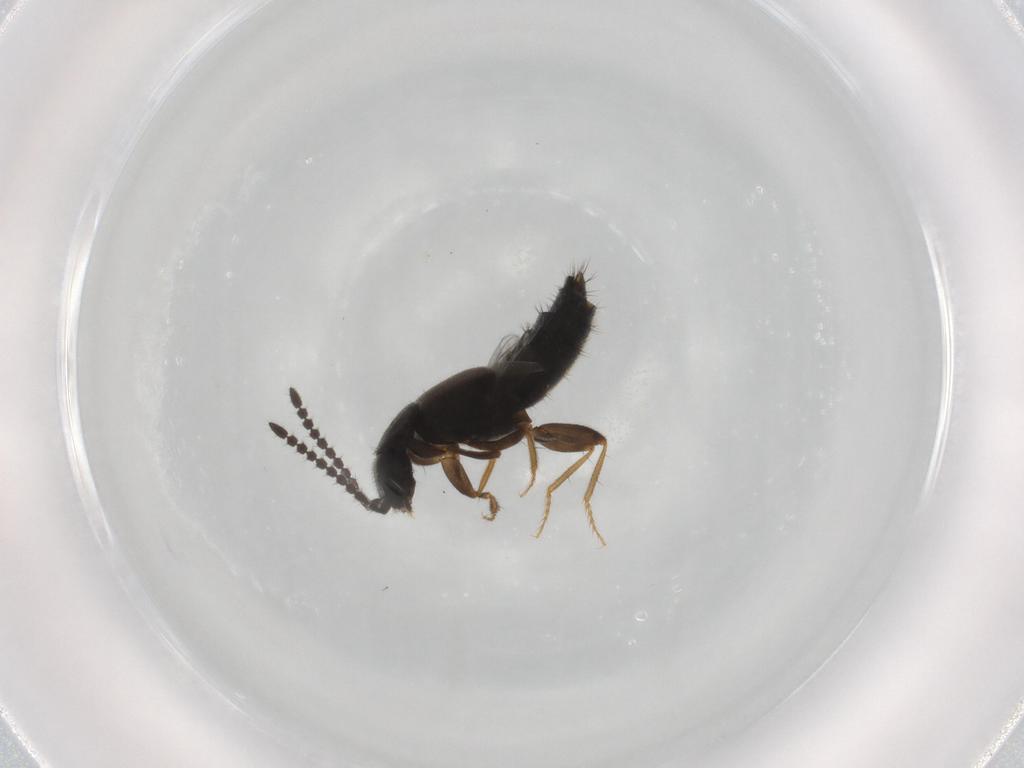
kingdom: Animalia
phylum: Arthropoda
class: Insecta
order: Coleoptera
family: Staphylinidae
